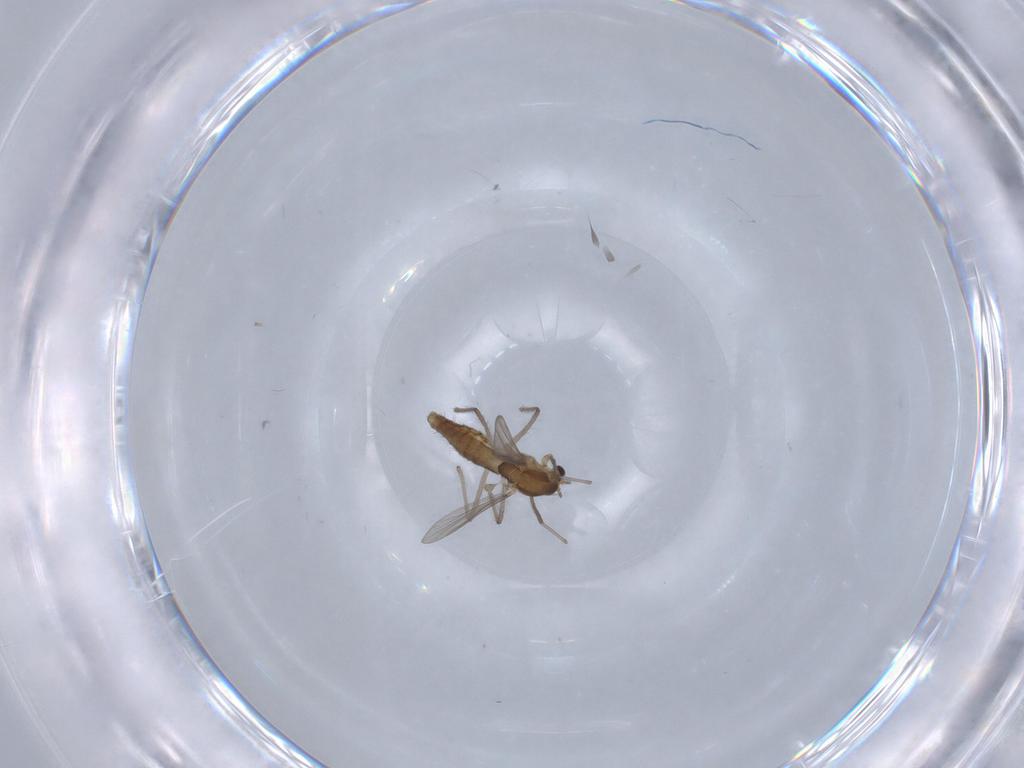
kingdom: Animalia
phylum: Arthropoda
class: Insecta
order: Diptera
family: Chironomidae
